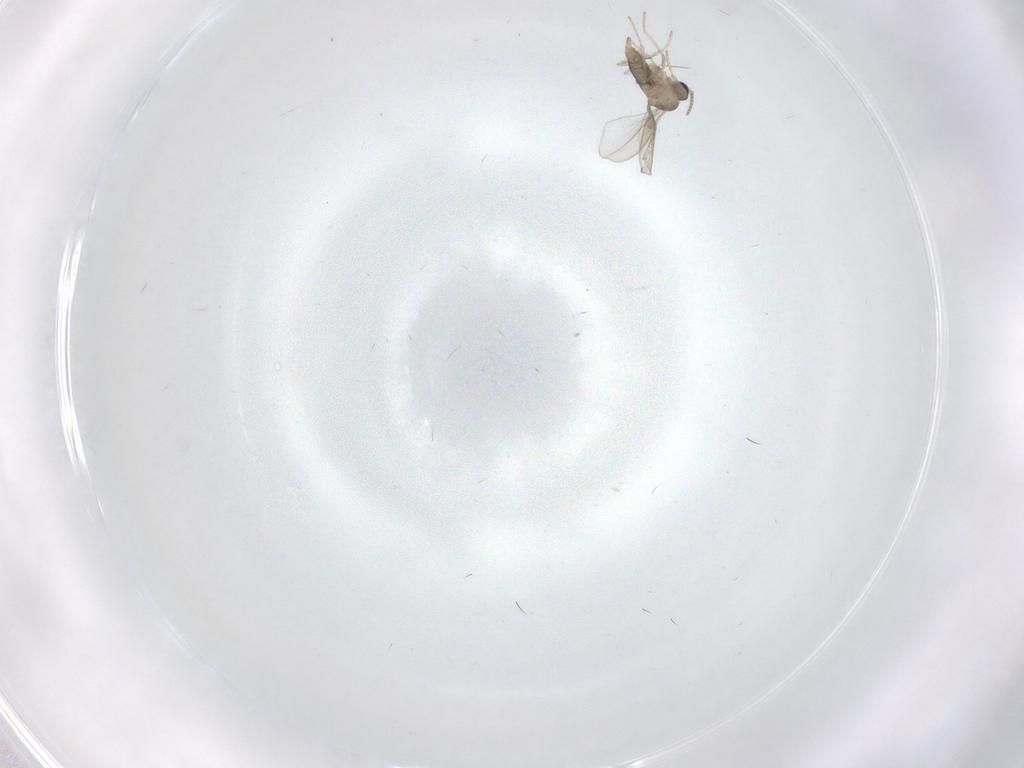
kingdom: Animalia
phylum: Arthropoda
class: Insecta
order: Diptera
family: Cecidomyiidae
